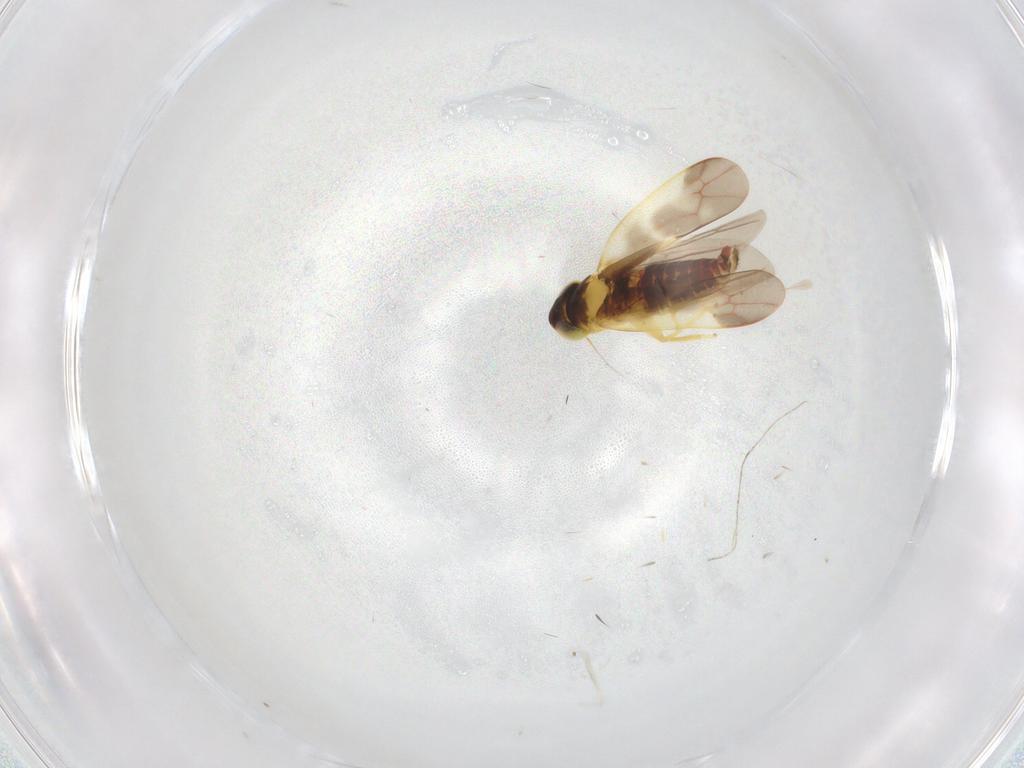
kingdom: Animalia
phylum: Arthropoda
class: Insecta
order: Hemiptera
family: Cicadellidae
